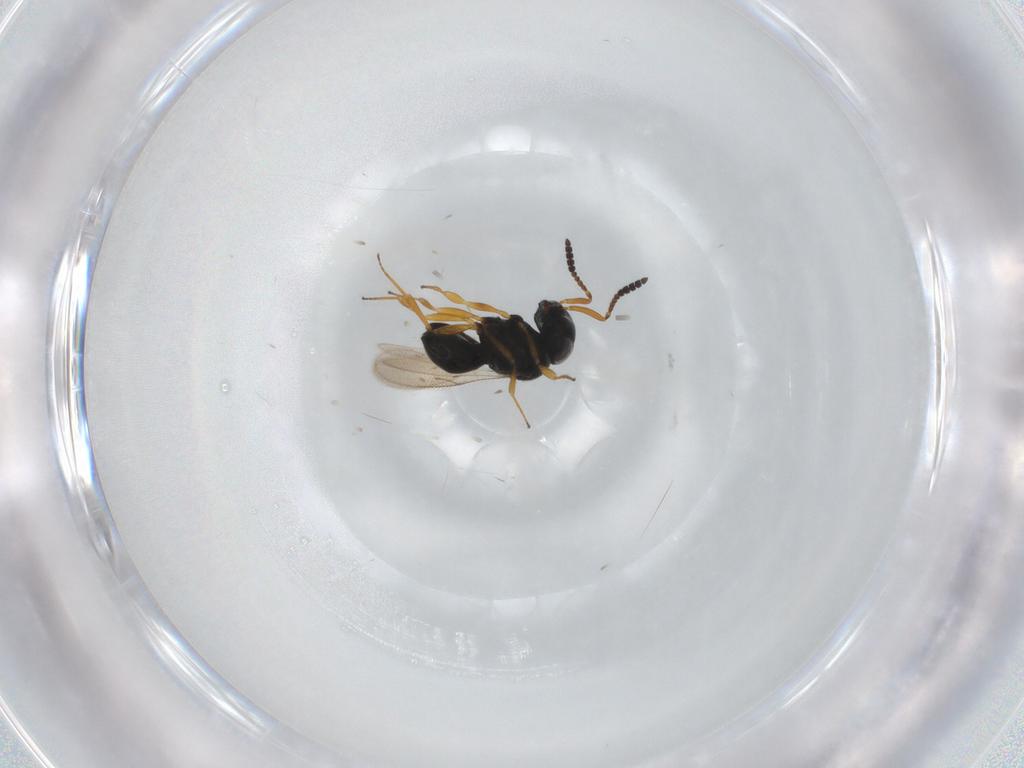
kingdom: Animalia
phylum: Arthropoda
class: Insecta
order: Hymenoptera
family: Scelionidae
